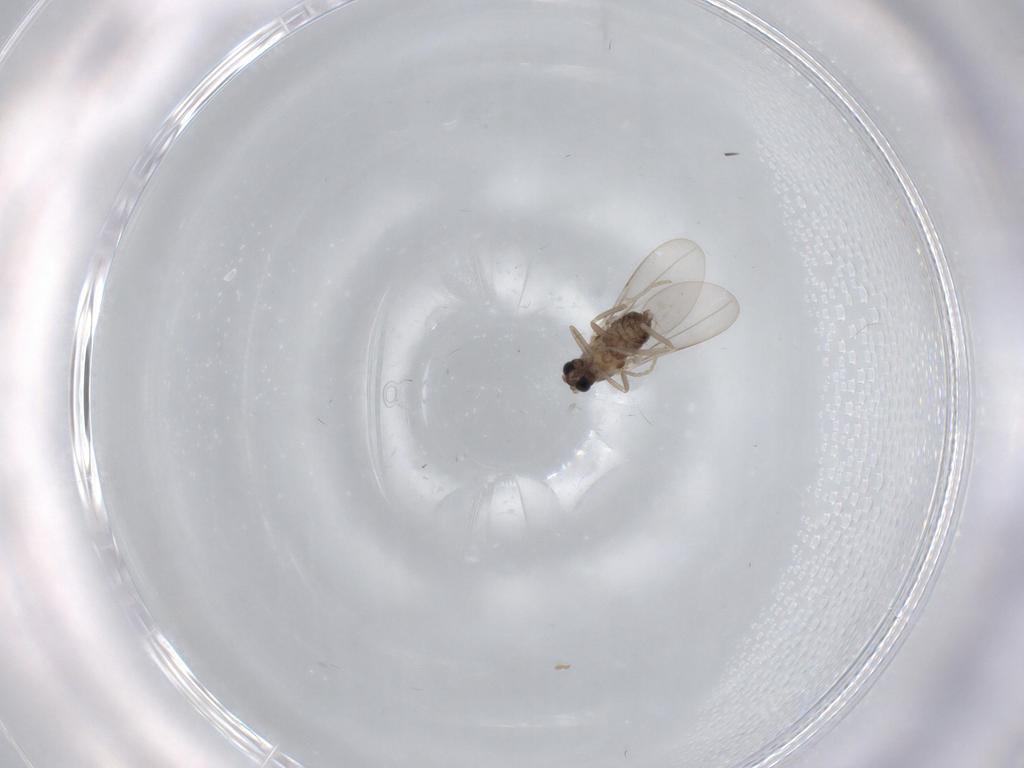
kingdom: Animalia
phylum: Arthropoda
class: Insecta
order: Diptera
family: Cecidomyiidae
